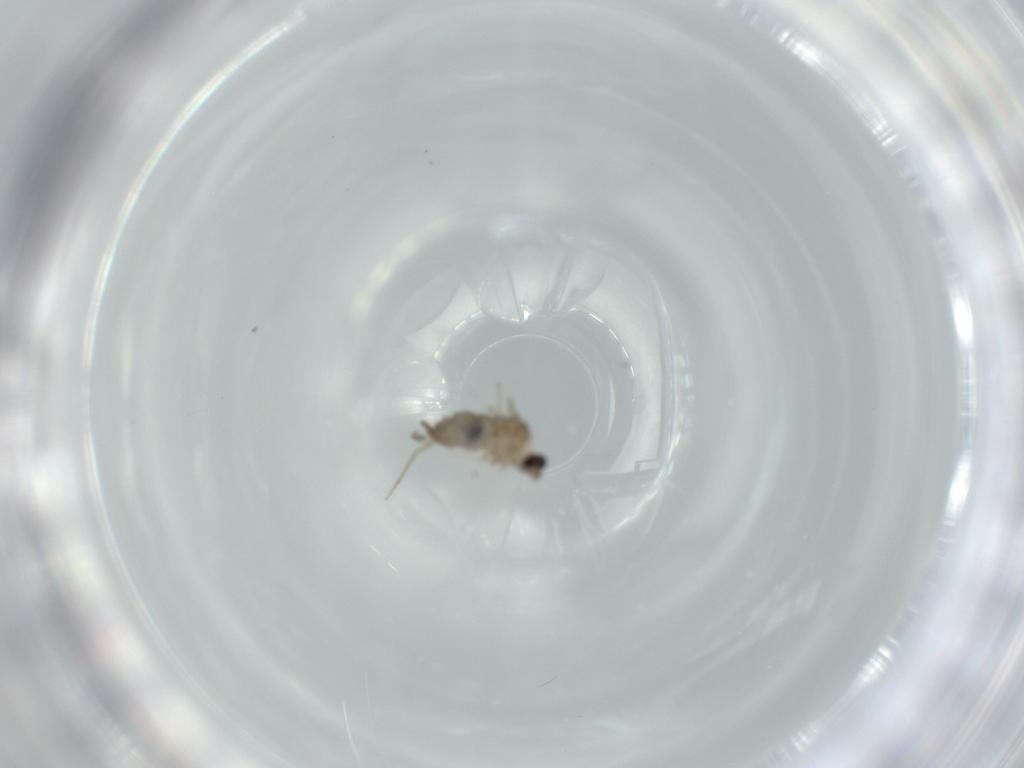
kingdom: Animalia
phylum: Arthropoda
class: Insecta
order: Diptera
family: Cecidomyiidae
